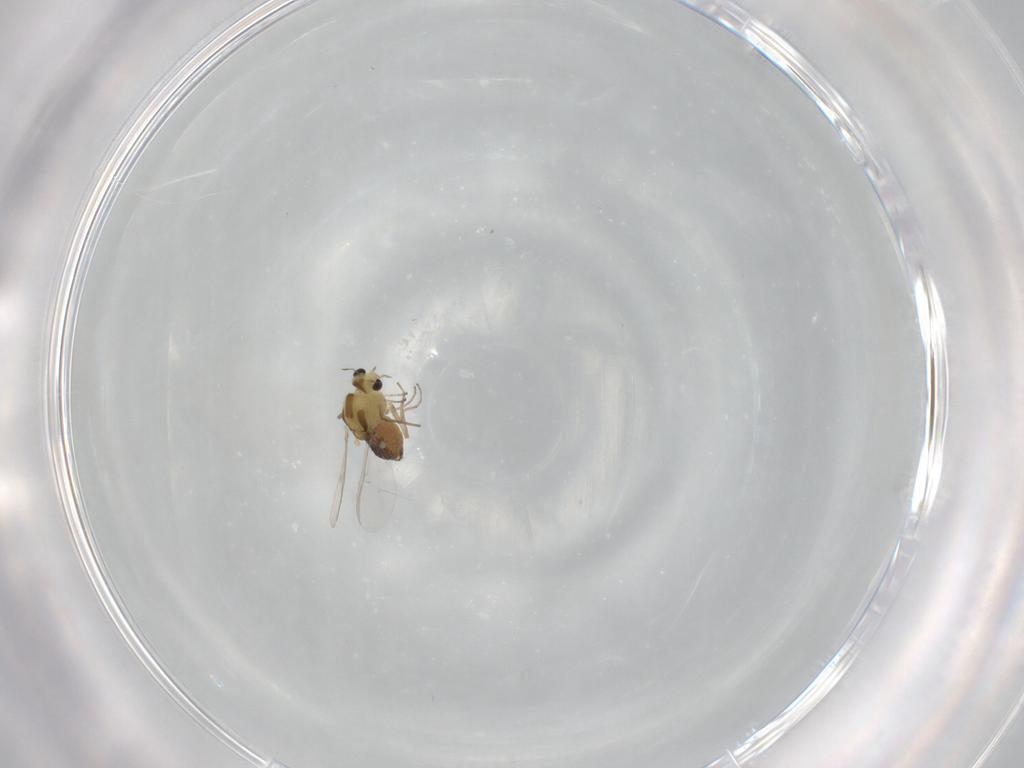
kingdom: Animalia
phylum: Arthropoda
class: Insecta
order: Diptera
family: Chironomidae
